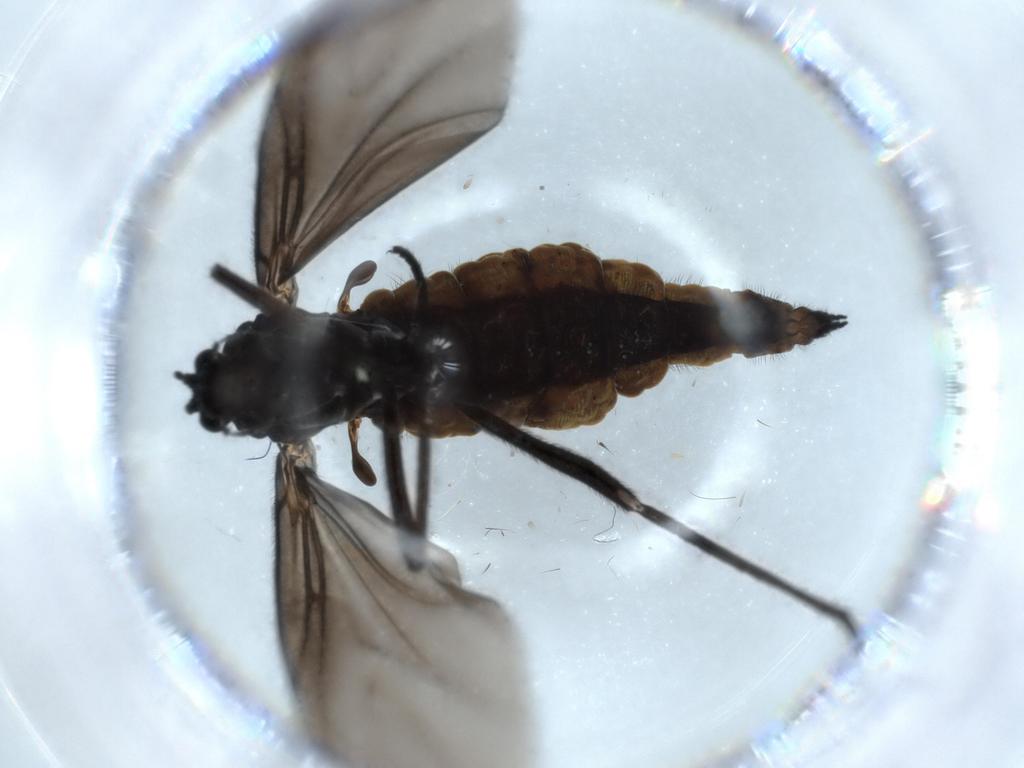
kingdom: Animalia
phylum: Arthropoda
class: Insecta
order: Diptera
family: Sciaridae
